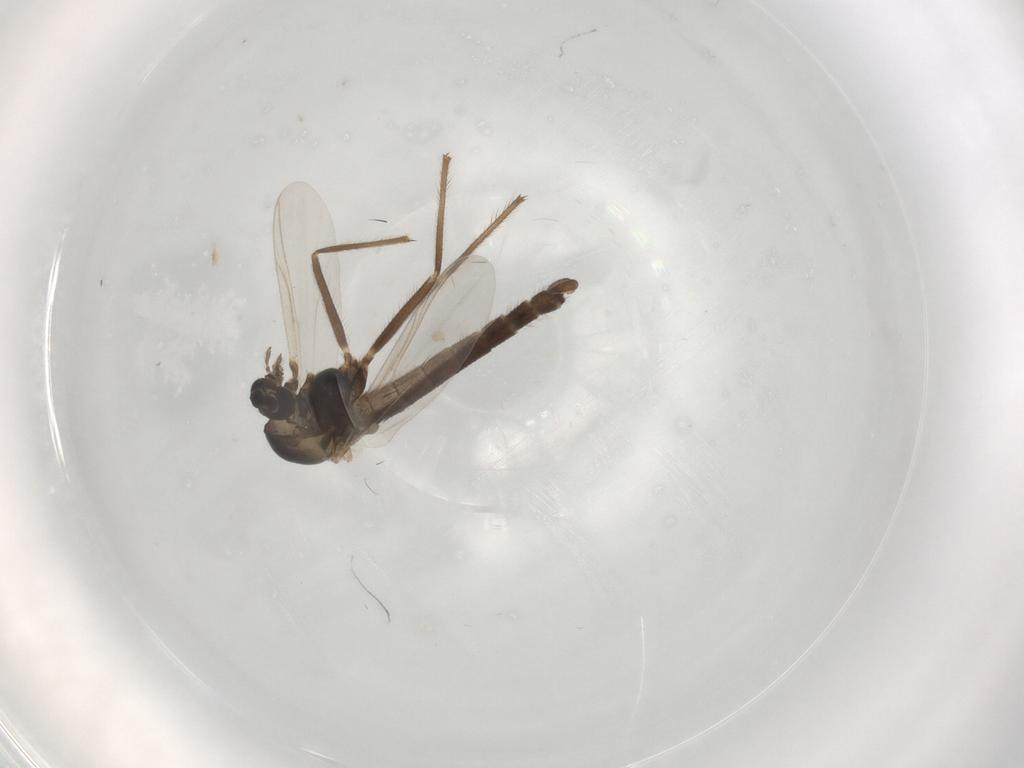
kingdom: Animalia
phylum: Arthropoda
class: Insecta
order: Diptera
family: Chironomidae
